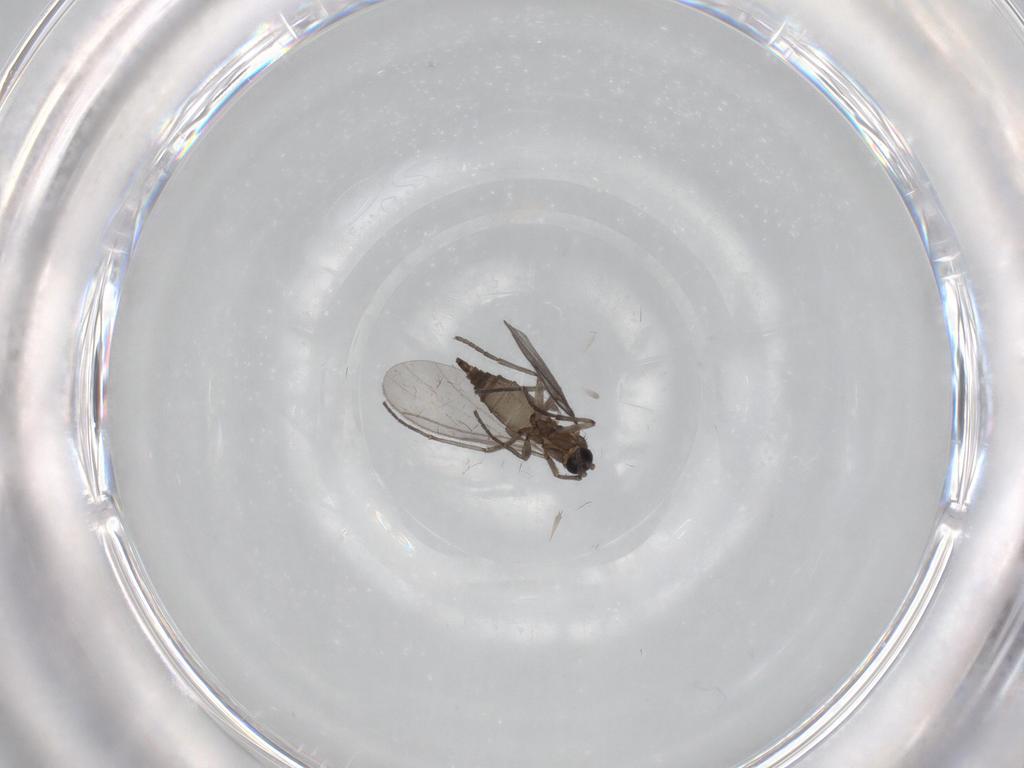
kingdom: Animalia
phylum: Arthropoda
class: Insecta
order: Diptera
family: Sciaridae
